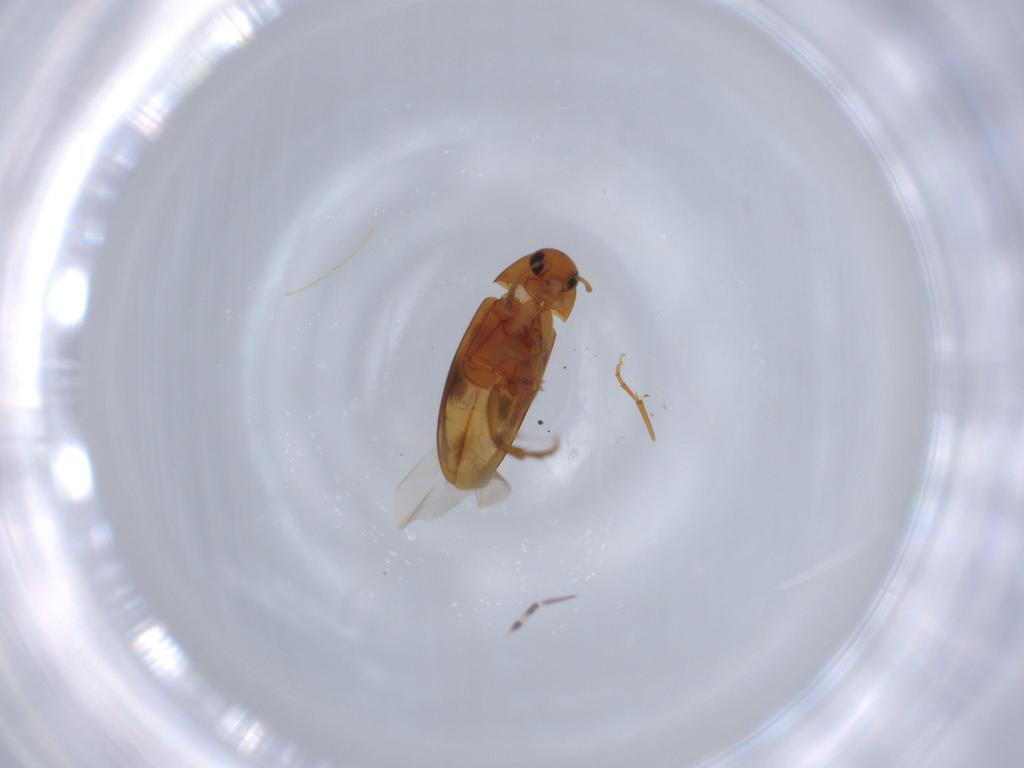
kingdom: Animalia
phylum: Arthropoda
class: Insecta
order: Coleoptera
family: Scraptiidae
